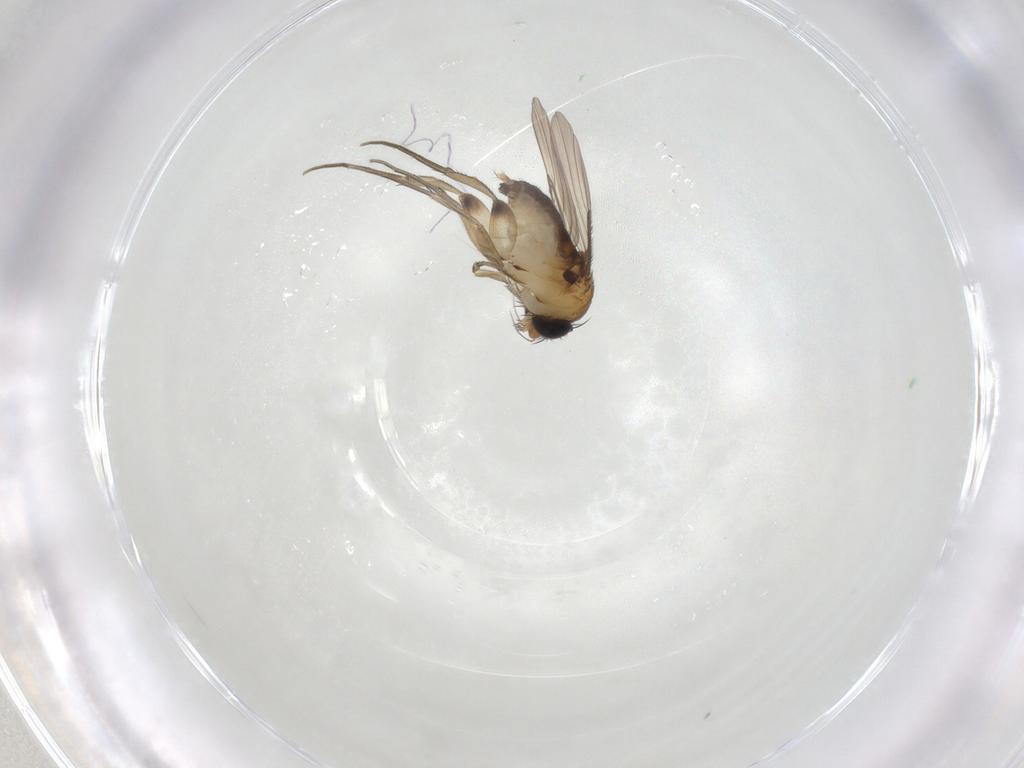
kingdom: Animalia
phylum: Arthropoda
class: Insecta
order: Diptera
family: Phoridae
